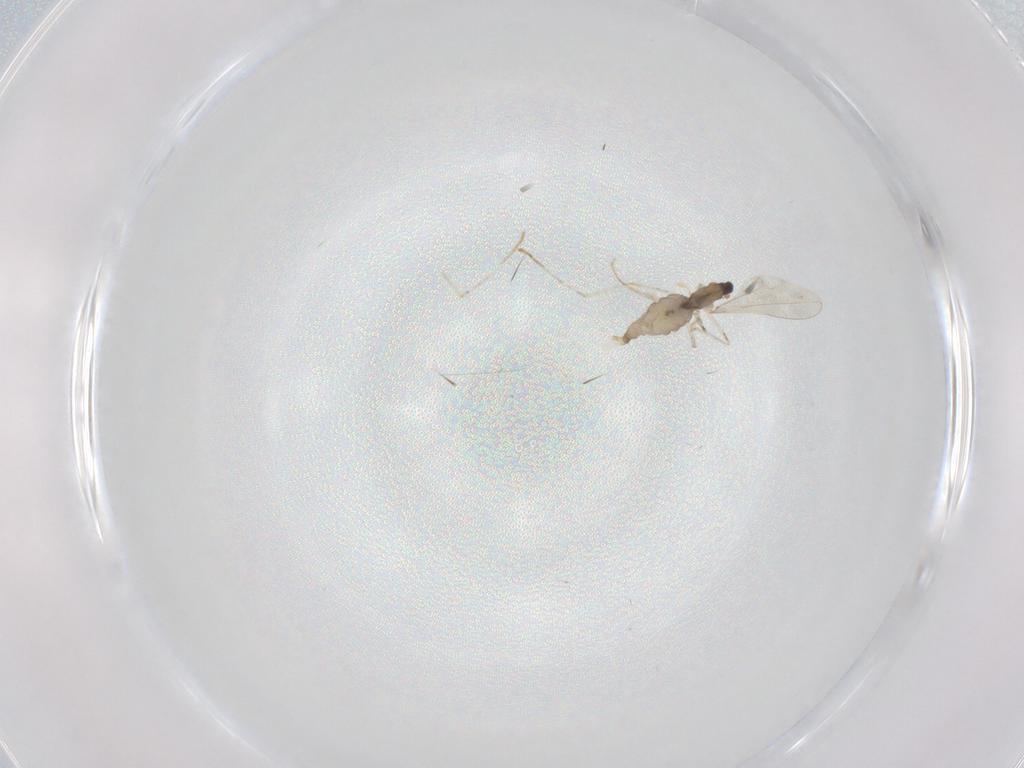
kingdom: Animalia
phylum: Arthropoda
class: Insecta
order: Diptera
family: Cecidomyiidae
